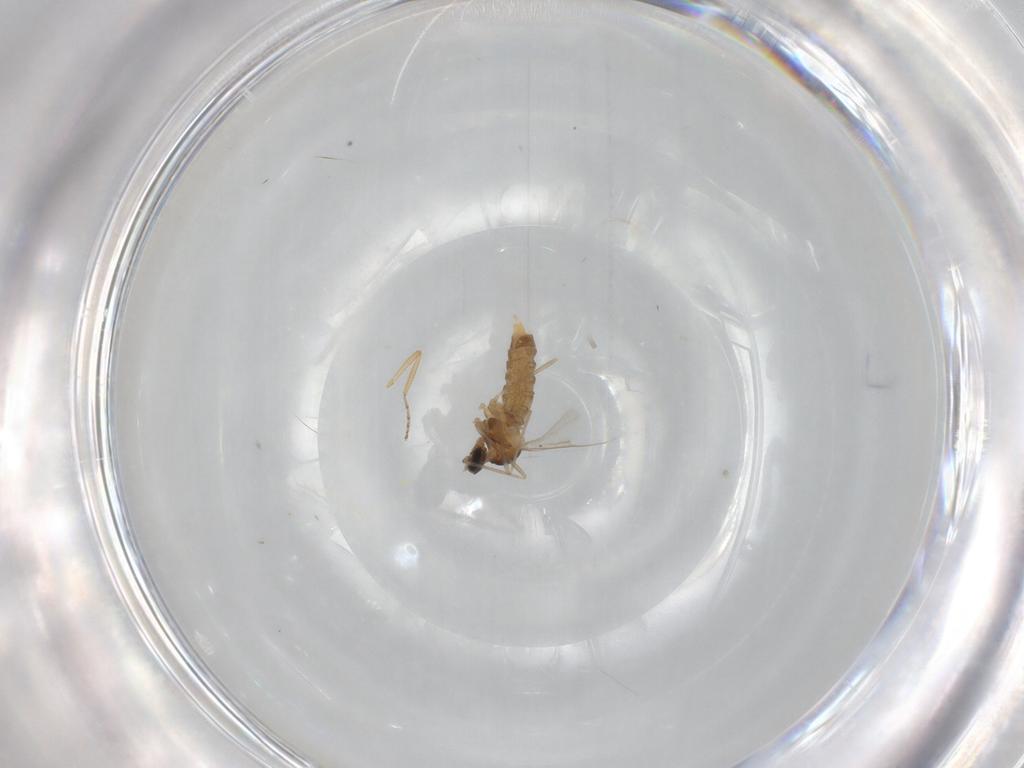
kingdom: Animalia
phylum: Arthropoda
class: Insecta
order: Diptera
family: Cecidomyiidae
